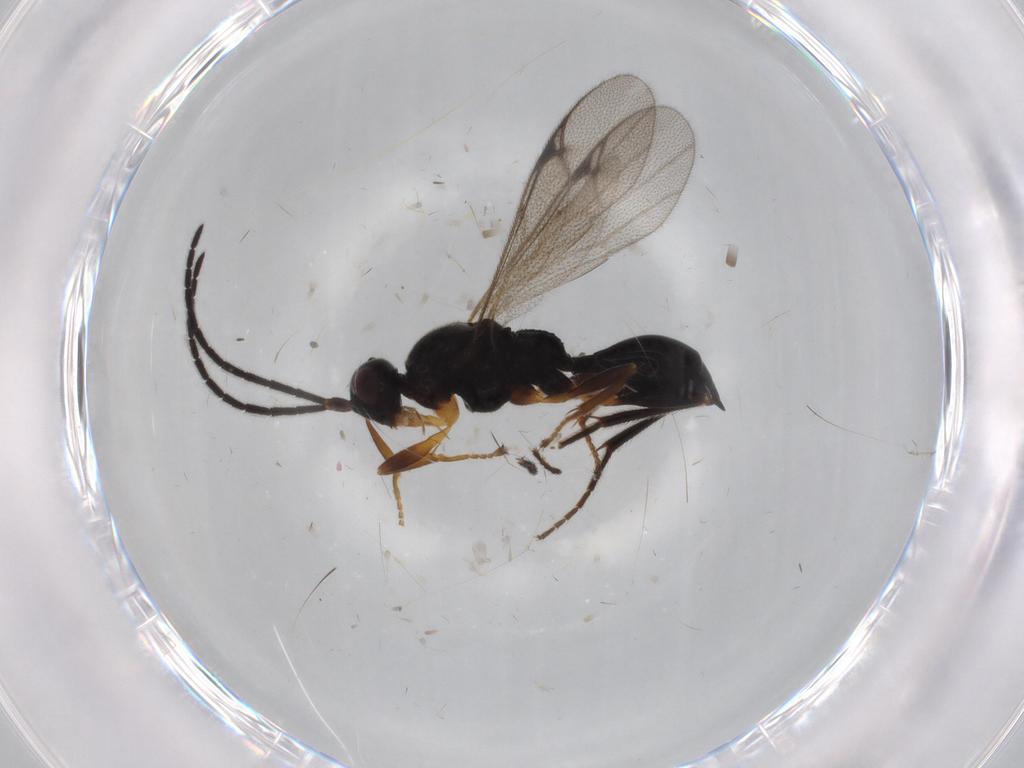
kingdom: Animalia
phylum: Arthropoda
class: Insecta
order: Hymenoptera
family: Proctotrupidae
